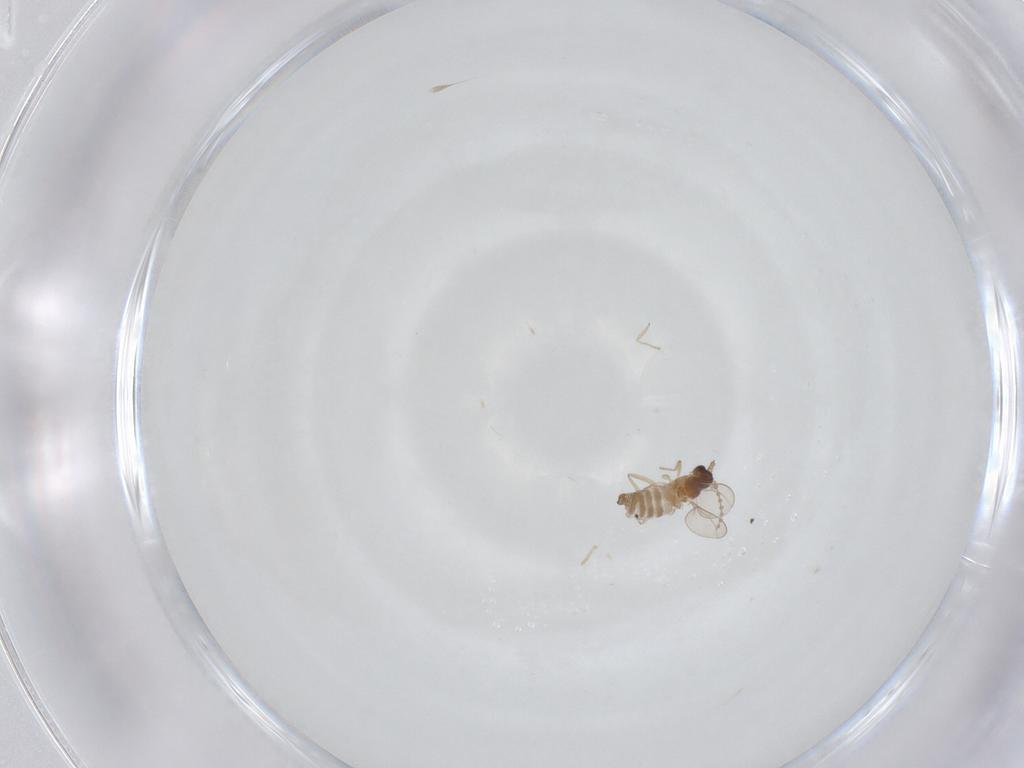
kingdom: Animalia
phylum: Arthropoda
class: Insecta
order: Diptera
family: Cecidomyiidae
